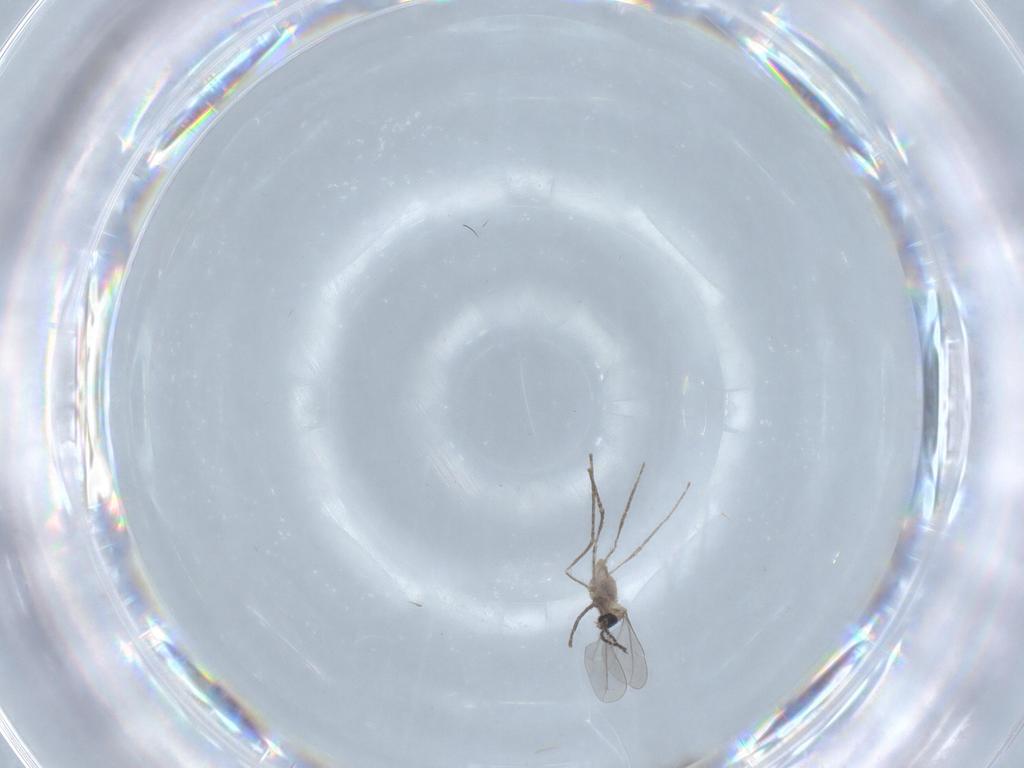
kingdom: Animalia
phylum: Arthropoda
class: Insecta
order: Diptera
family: Cecidomyiidae
